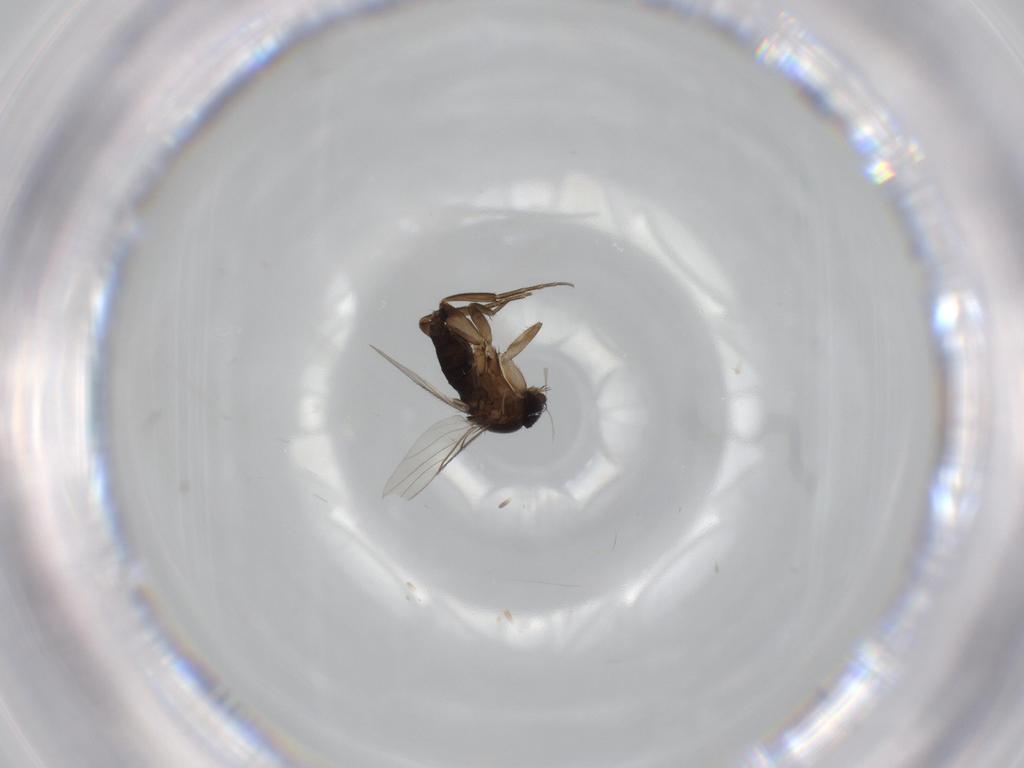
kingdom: Animalia
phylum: Arthropoda
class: Insecta
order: Diptera
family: Phoridae
